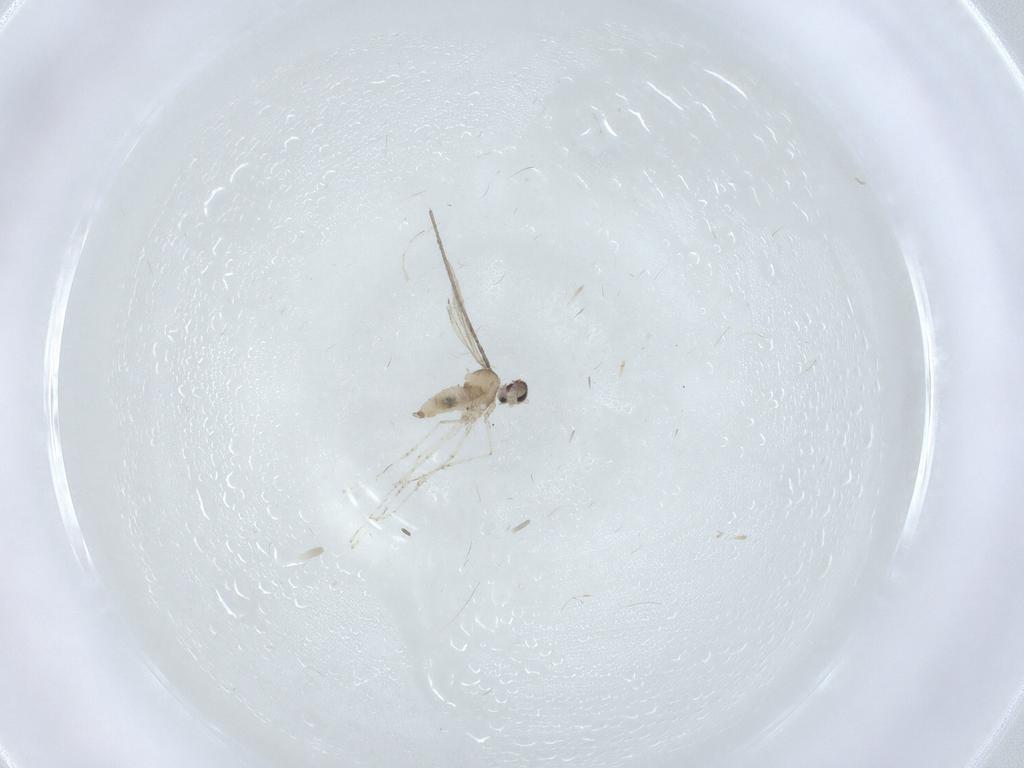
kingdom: Animalia
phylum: Arthropoda
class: Insecta
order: Diptera
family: Cecidomyiidae
